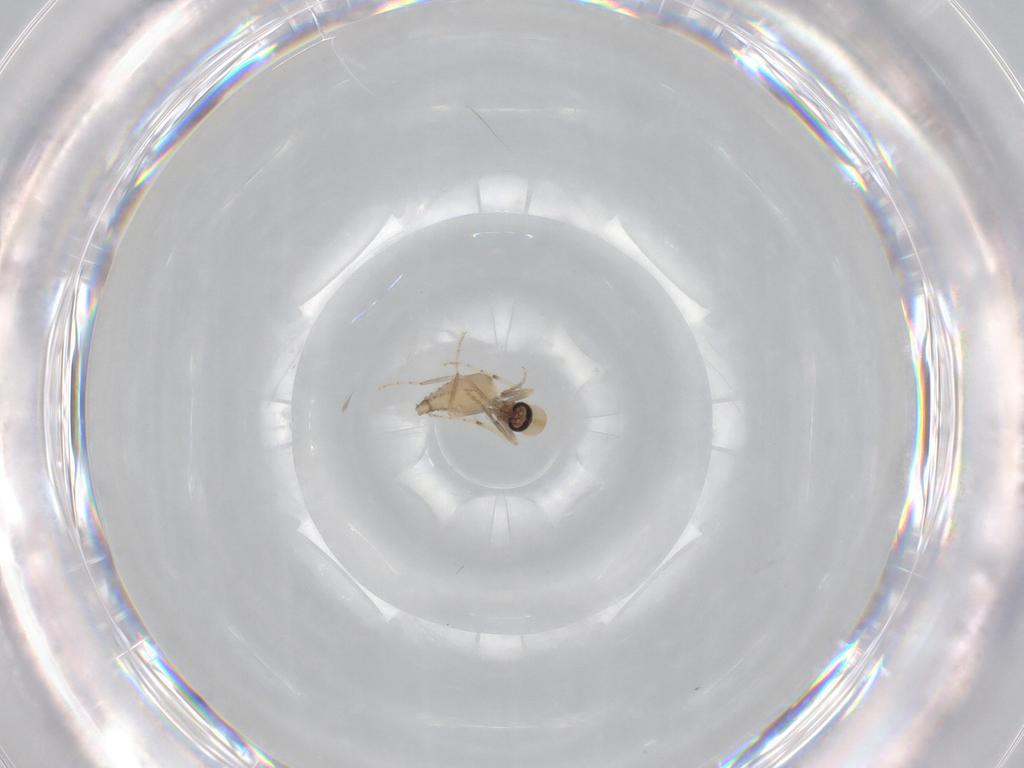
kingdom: Animalia
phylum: Arthropoda
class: Insecta
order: Diptera
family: Ceratopogonidae
